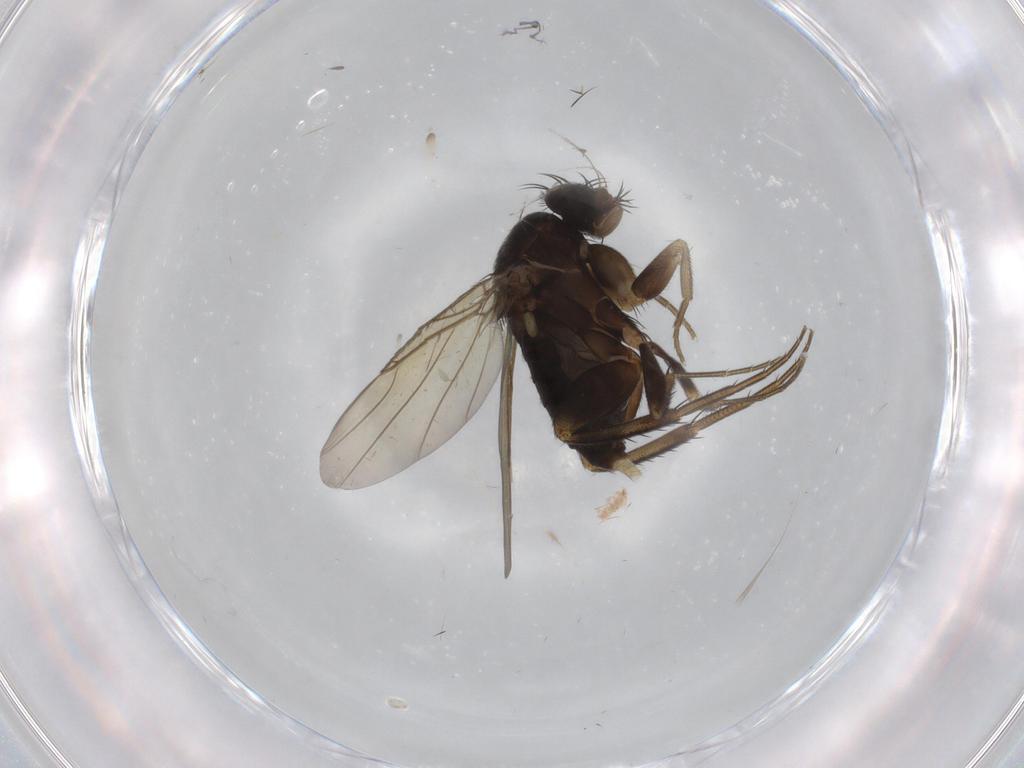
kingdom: Animalia
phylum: Arthropoda
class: Insecta
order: Diptera
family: Phoridae
